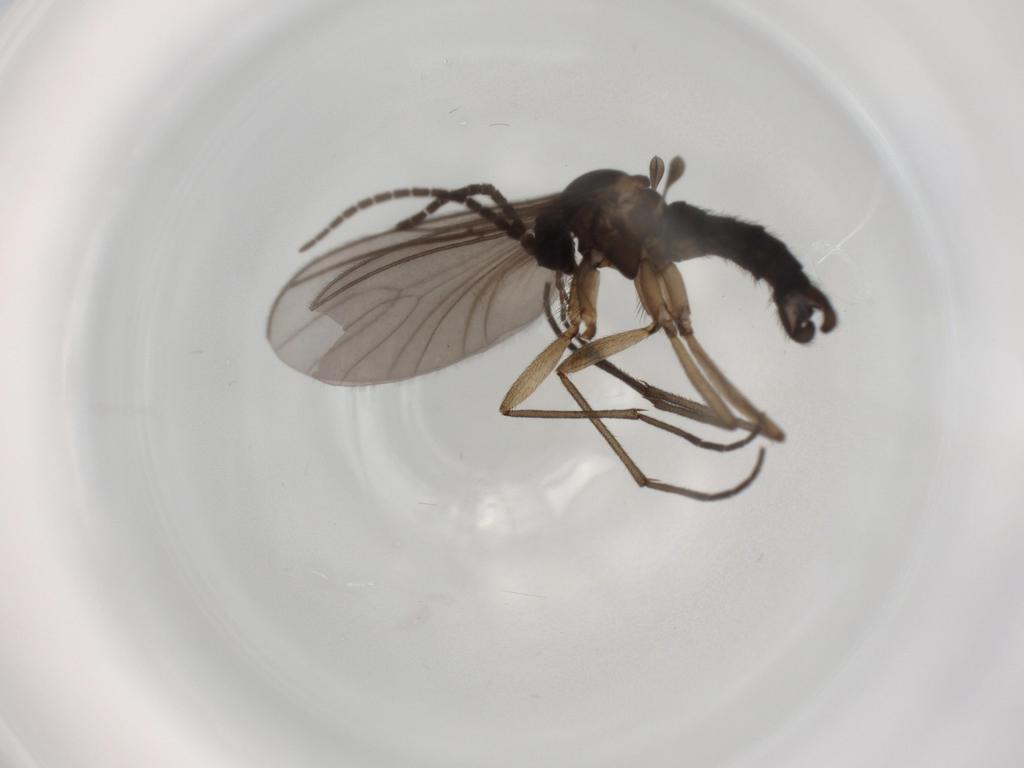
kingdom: Animalia
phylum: Arthropoda
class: Insecta
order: Diptera
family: Sciaridae
